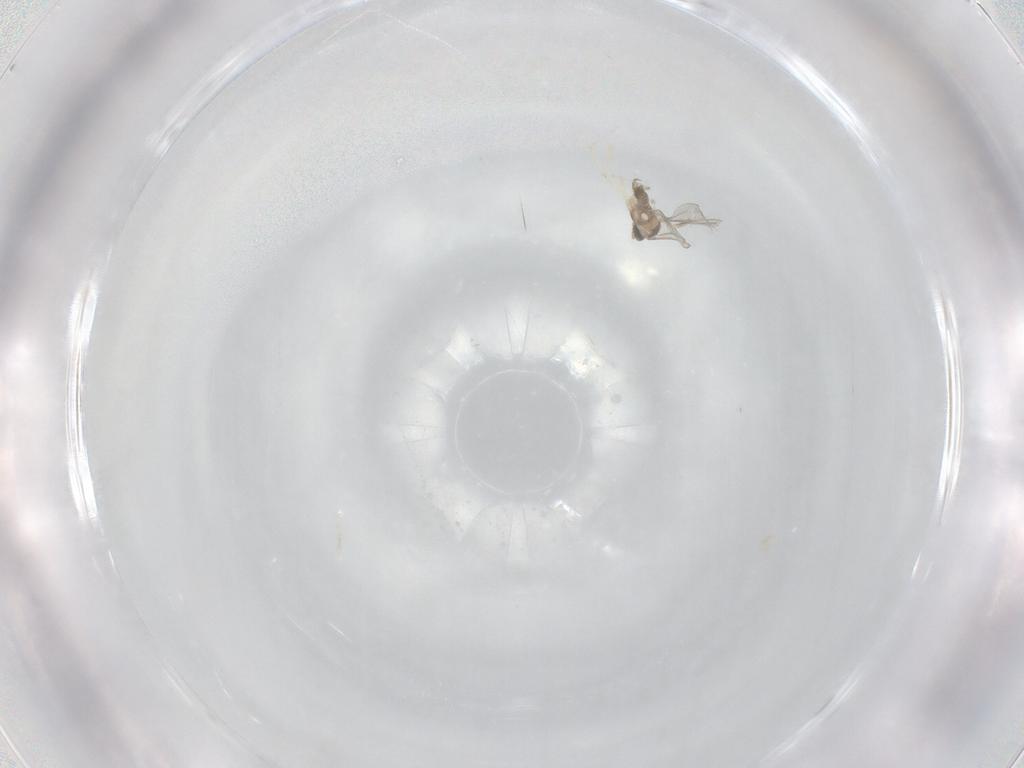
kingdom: Animalia
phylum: Arthropoda
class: Insecta
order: Diptera
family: Cecidomyiidae
